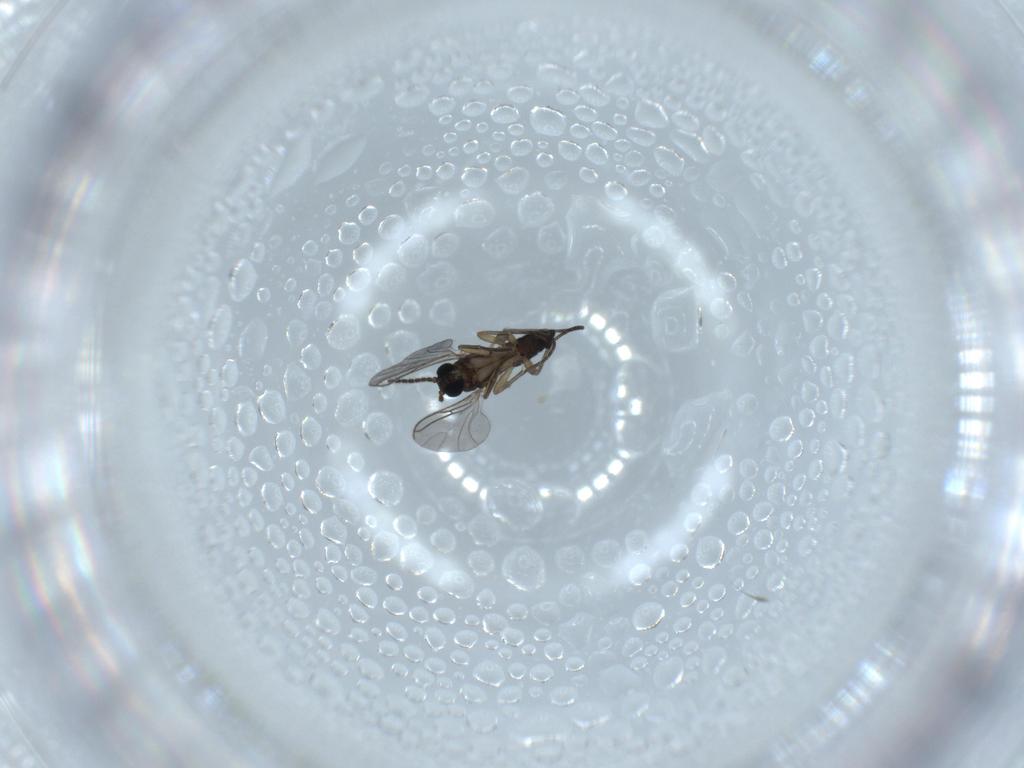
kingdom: Animalia
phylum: Arthropoda
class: Insecta
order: Diptera
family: Sciaridae
